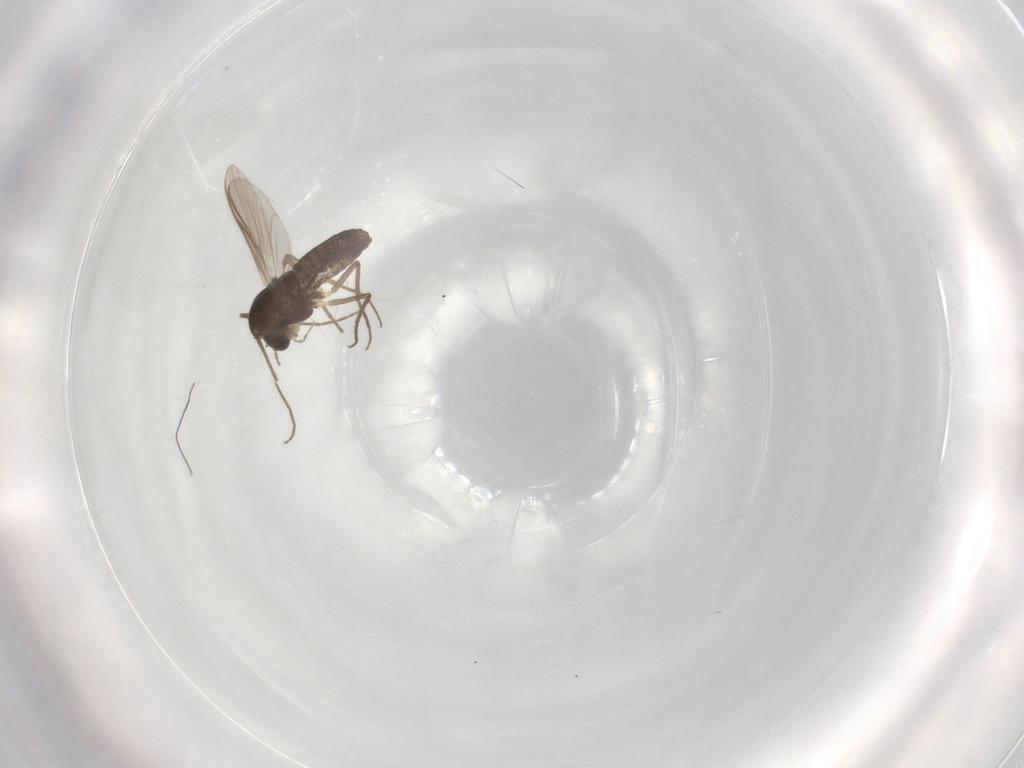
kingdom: Animalia
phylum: Arthropoda
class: Insecta
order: Diptera
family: Chironomidae
